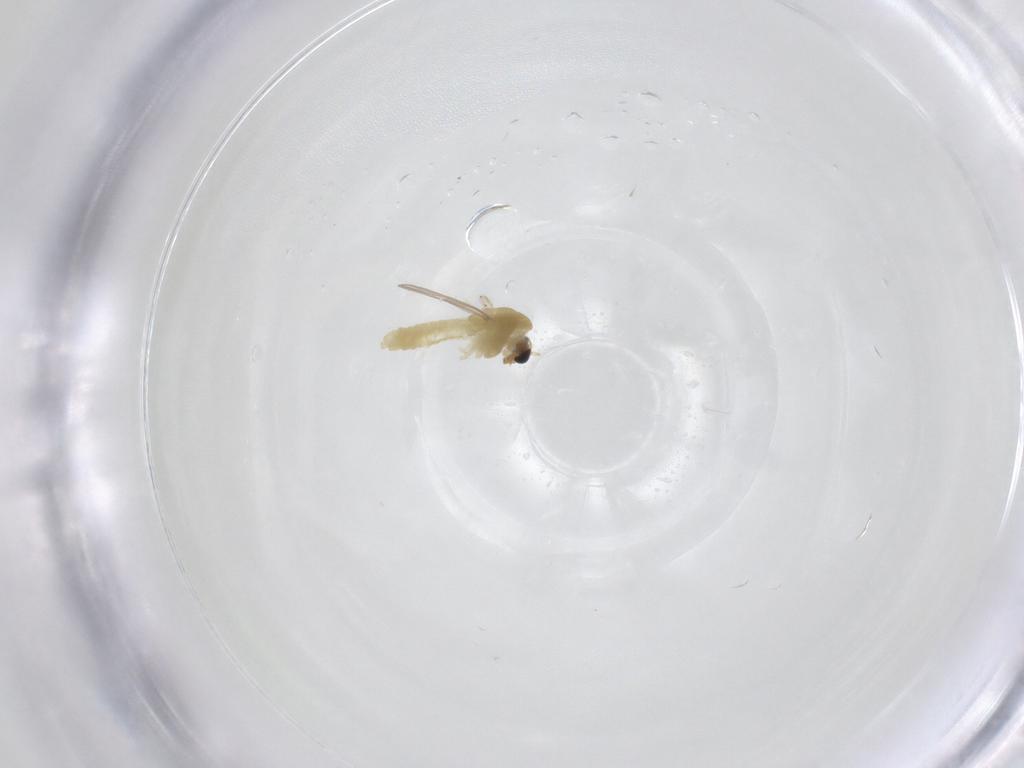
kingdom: Animalia
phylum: Arthropoda
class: Insecta
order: Diptera
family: Chironomidae
